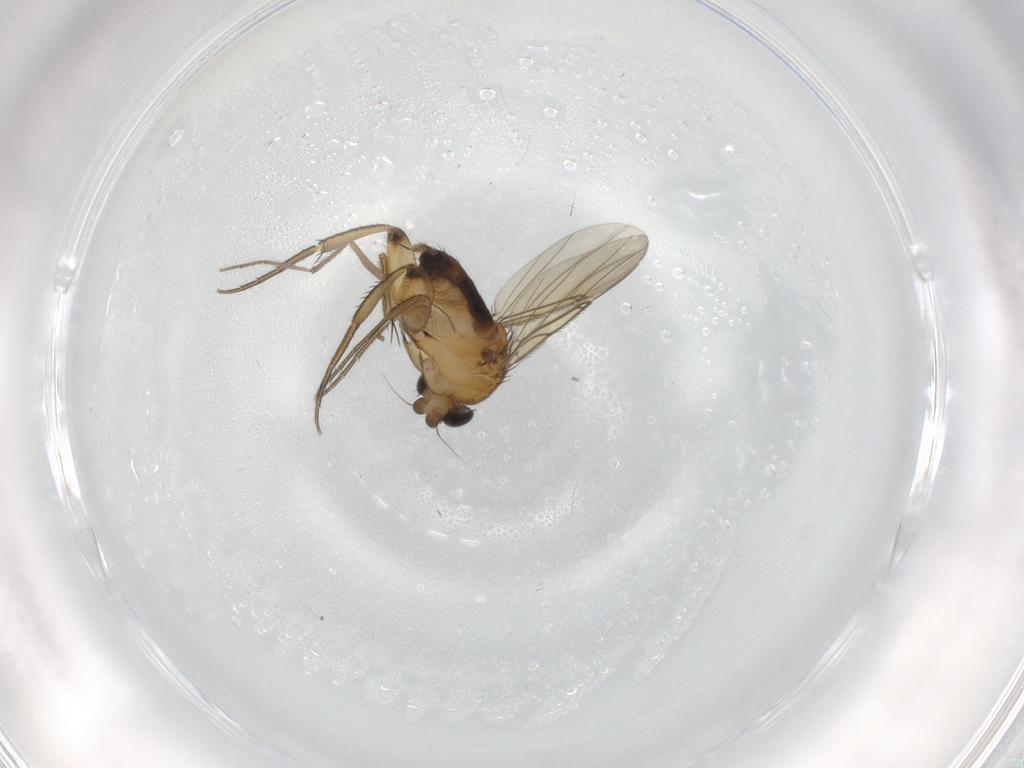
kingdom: Animalia
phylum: Arthropoda
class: Insecta
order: Diptera
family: Phoridae
